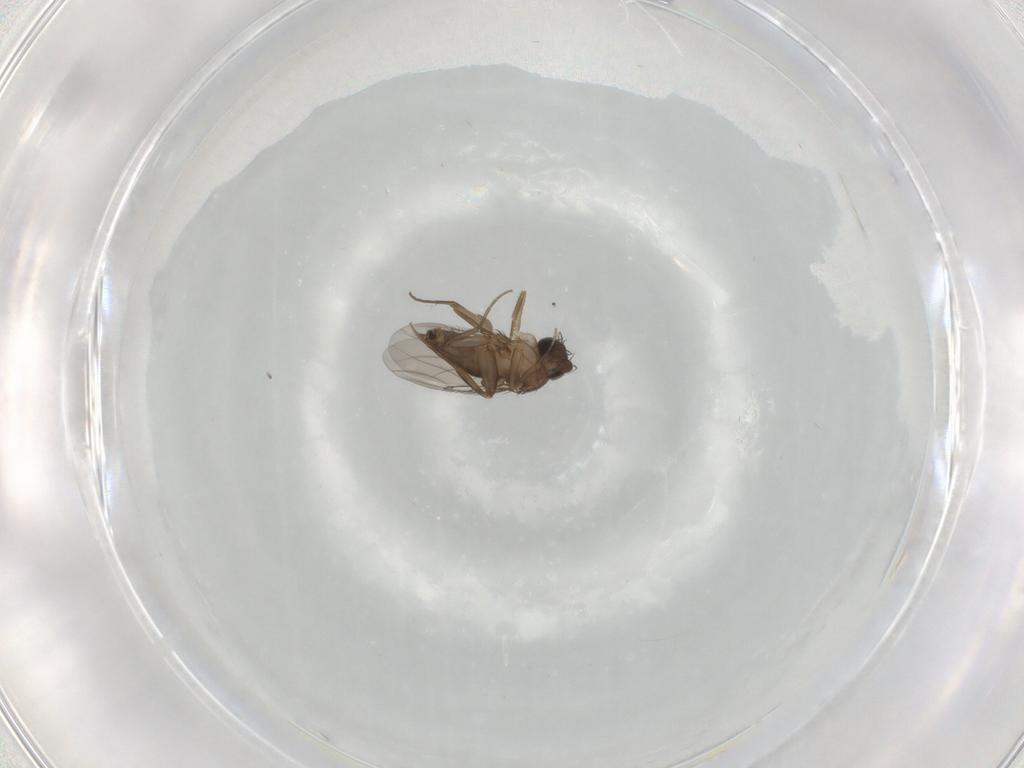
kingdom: Animalia
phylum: Arthropoda
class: Insecta
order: Diptera
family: Phoridae
